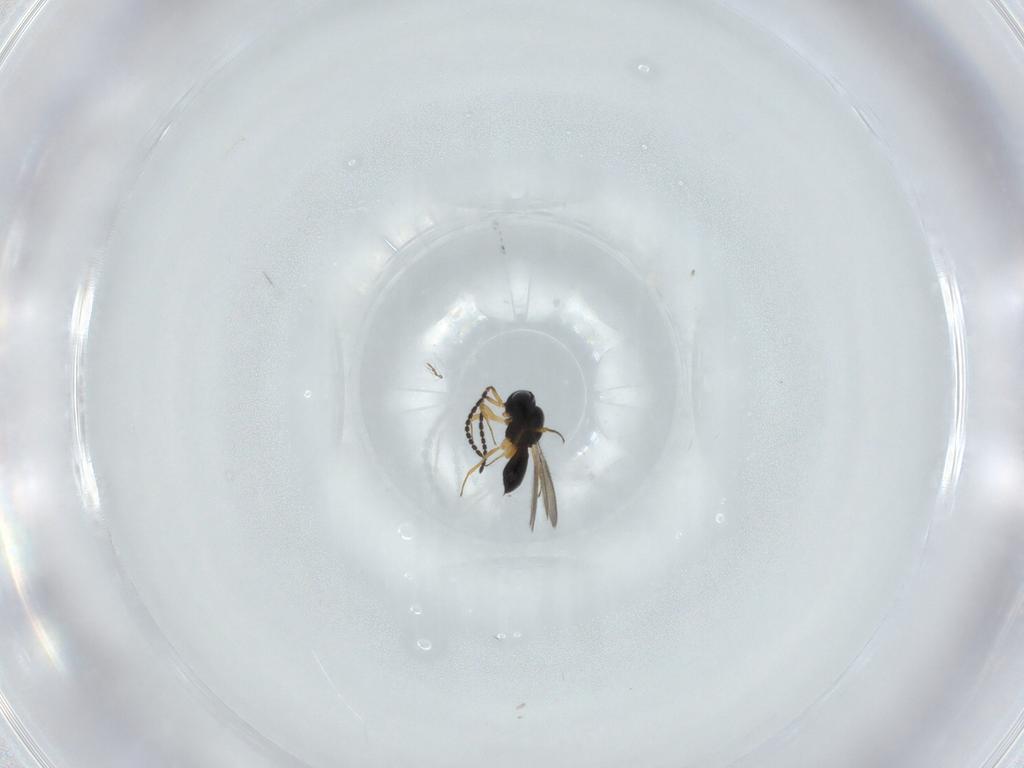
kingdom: Animalia
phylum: Arthropoda
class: Insecta
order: Hymenoptera
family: Scelionidae
